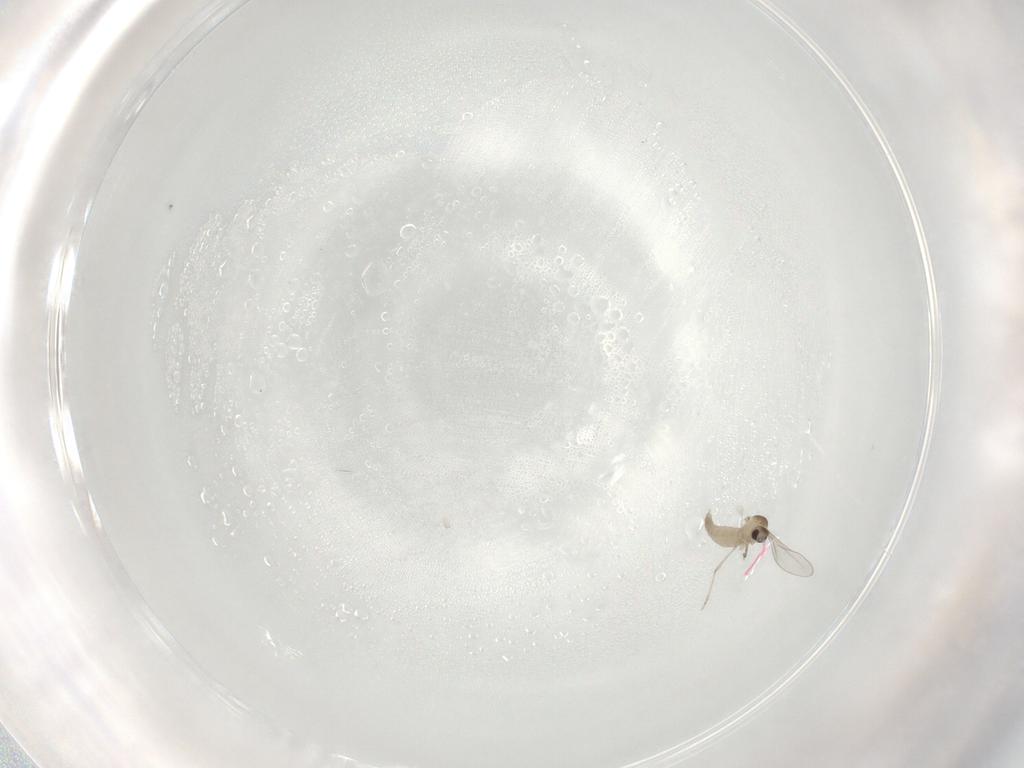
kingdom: Animalia
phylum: Arthropoda
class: Insecta
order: Diptera
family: Cecidomyiidae
